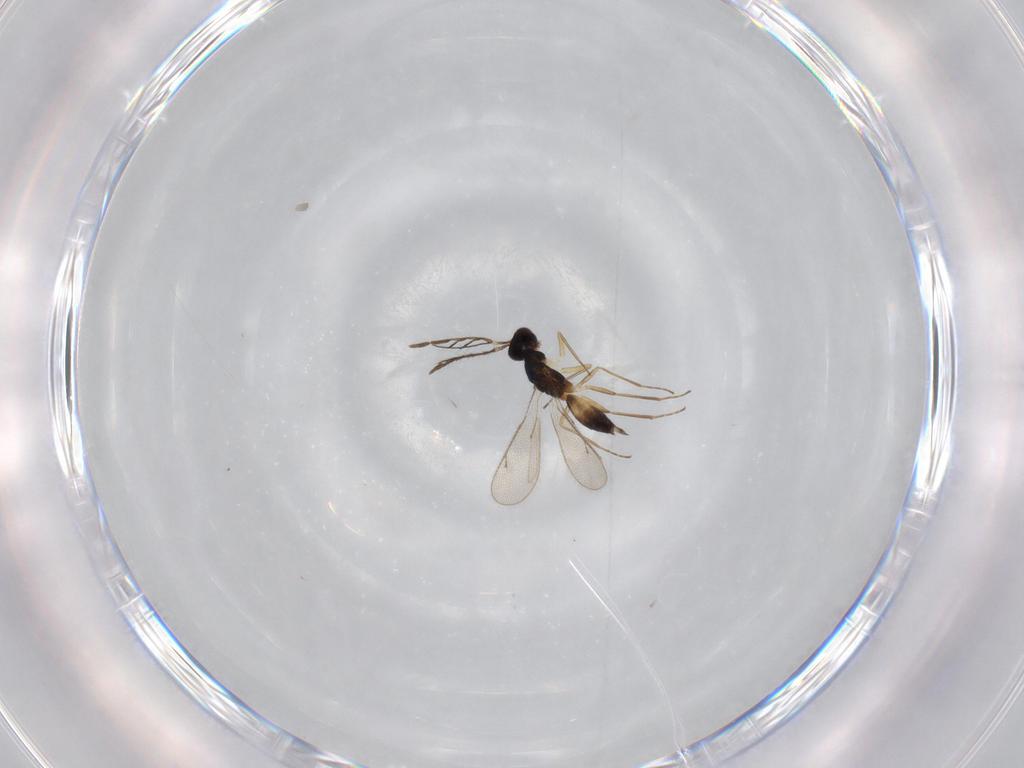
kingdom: Animalia
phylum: Arthropoda
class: Insecta
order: Hymenoptera
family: Eulophidae
